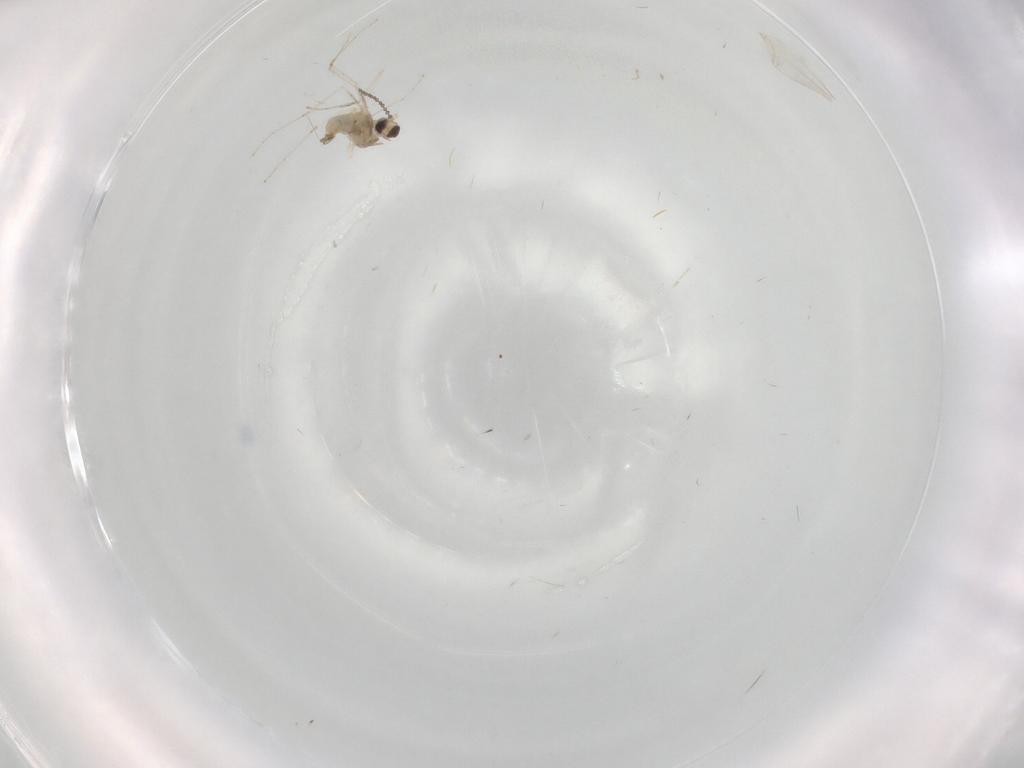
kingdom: Animalia
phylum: Arthropoda
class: Insecta
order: Diptera
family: Cecidomyiidae
